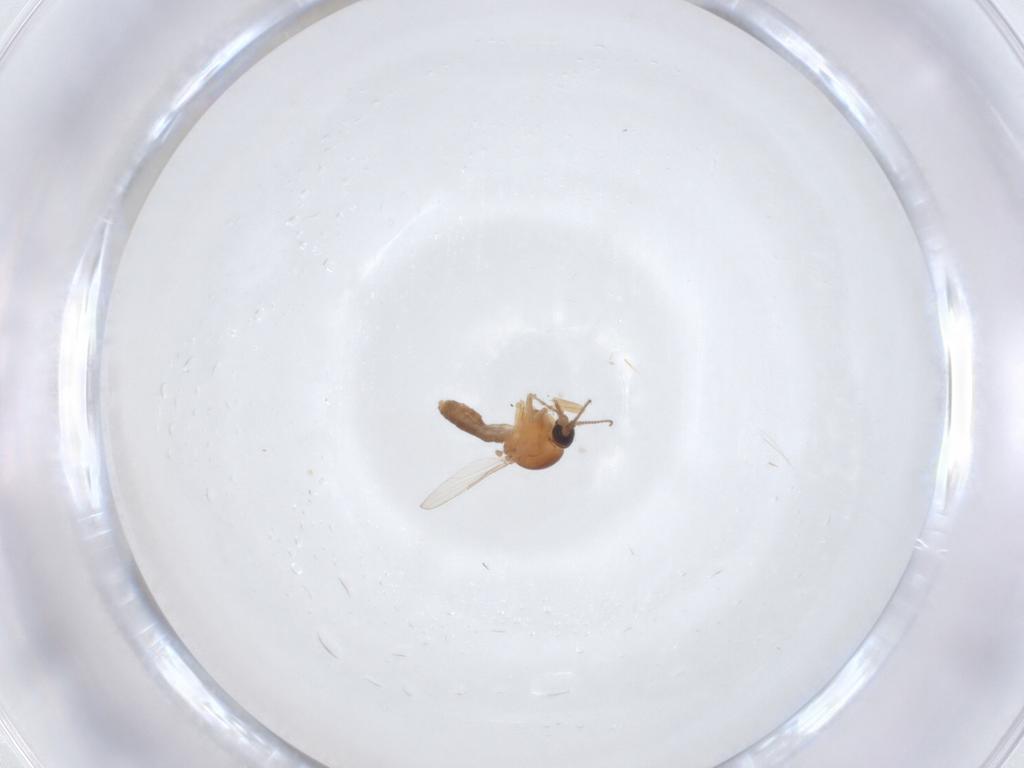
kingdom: Animalia
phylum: Arthropoda
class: Insecta
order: Diptera
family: Ceratopogonidae
